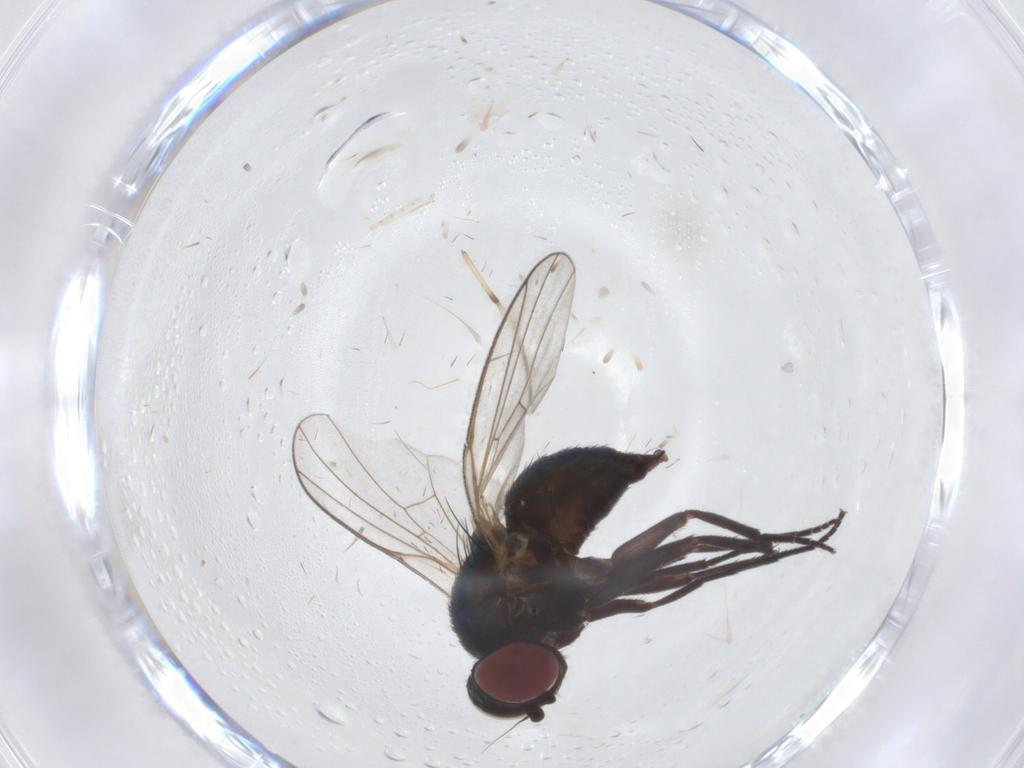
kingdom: Animalia
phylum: Arthropoda
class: Insecta
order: Diptera
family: Agromyzidae
